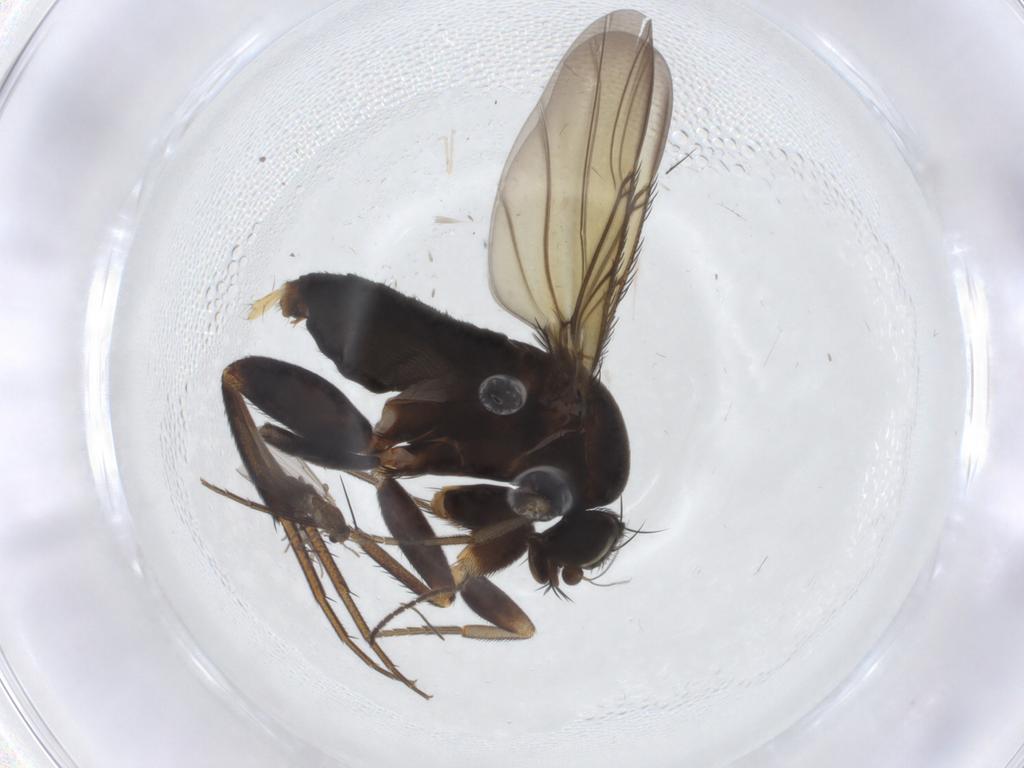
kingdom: Animalia
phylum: Arthropoda
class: Insecta
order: Diptera
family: Chironomidae
